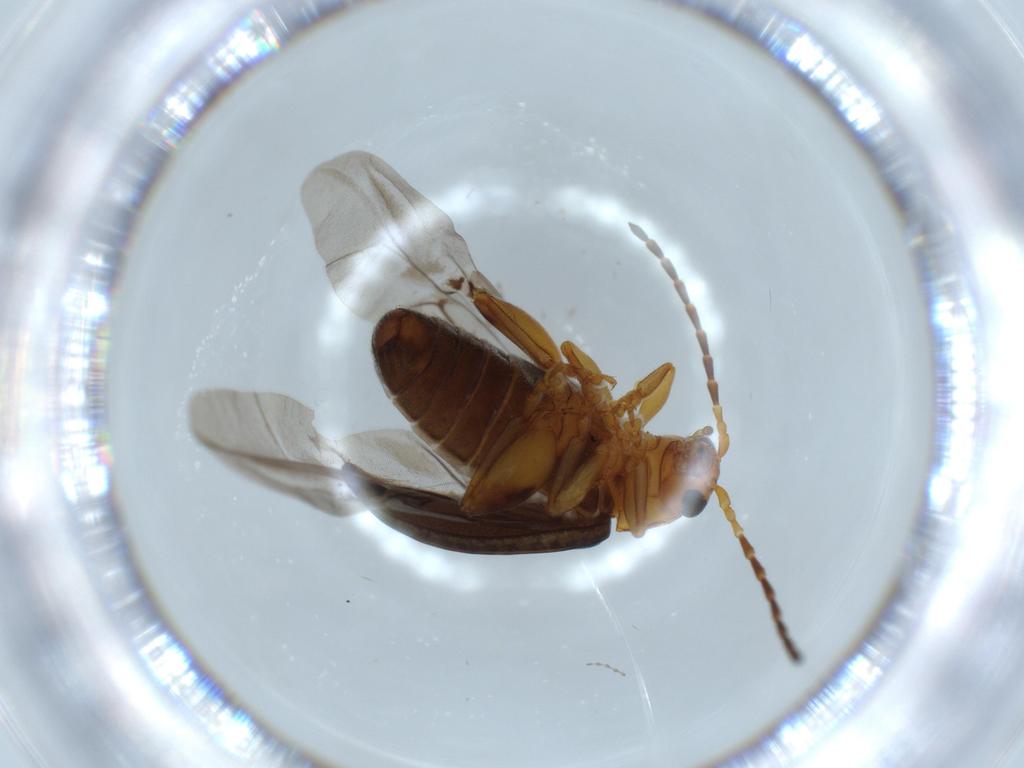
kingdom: Animalia
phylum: Arthropoda
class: Insecta
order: Coleoptera
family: Chrysomelidae
